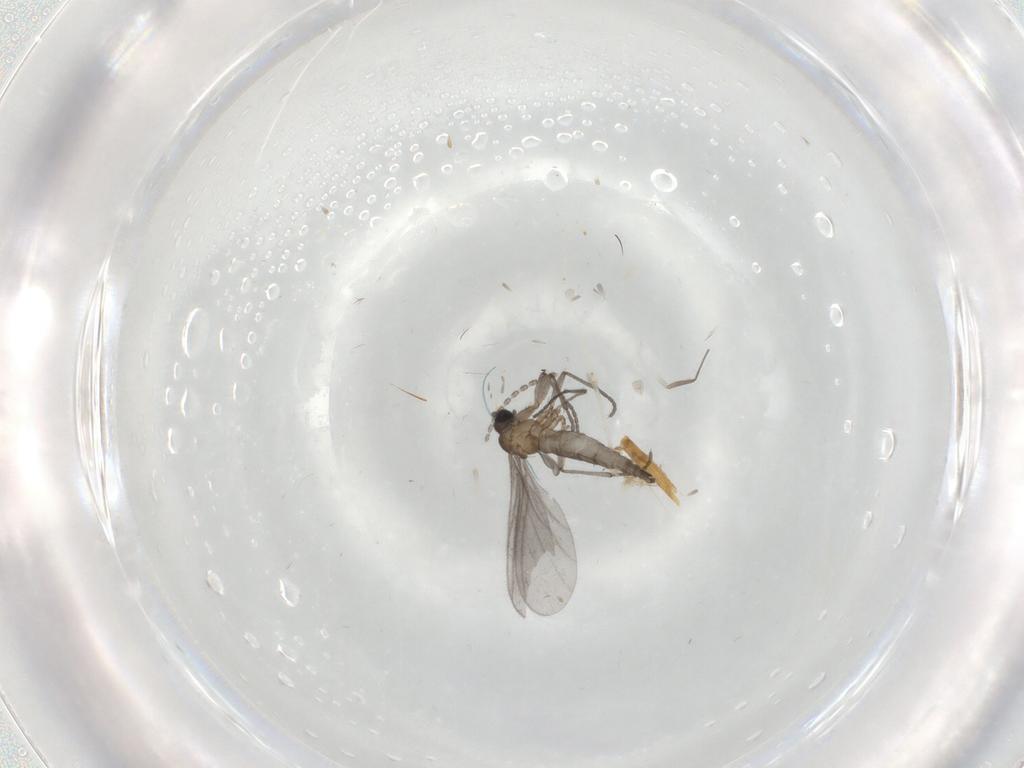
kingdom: Animalia
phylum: Arthropoda
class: Insecta
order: Diptera
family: Sciaridae
